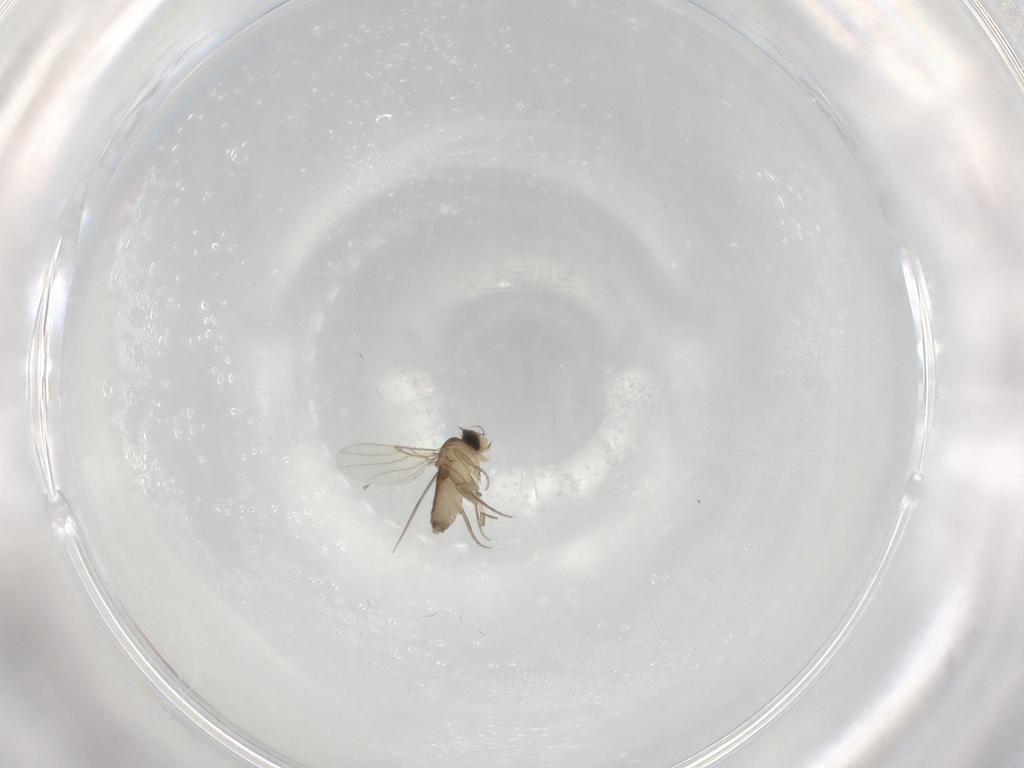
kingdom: Animalia
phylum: Arthropoda
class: Insecta
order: Diptera
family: Phoridae
